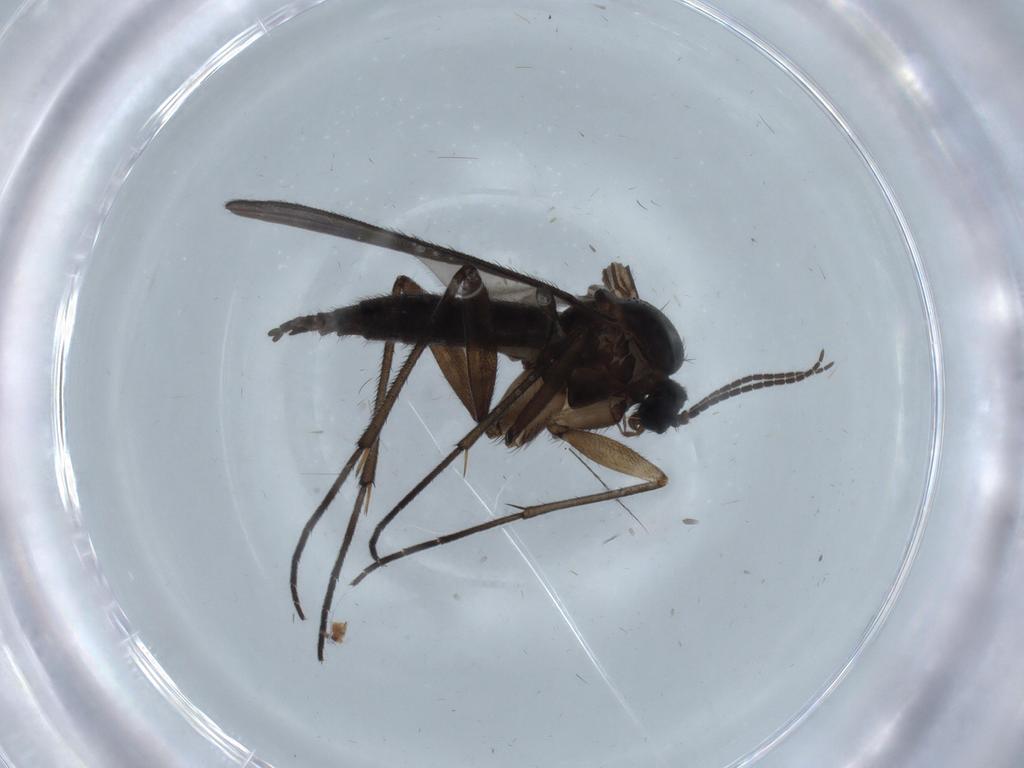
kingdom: Animalia
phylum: Arthropoda
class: Insecta
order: Diptera
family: Sciaridae
